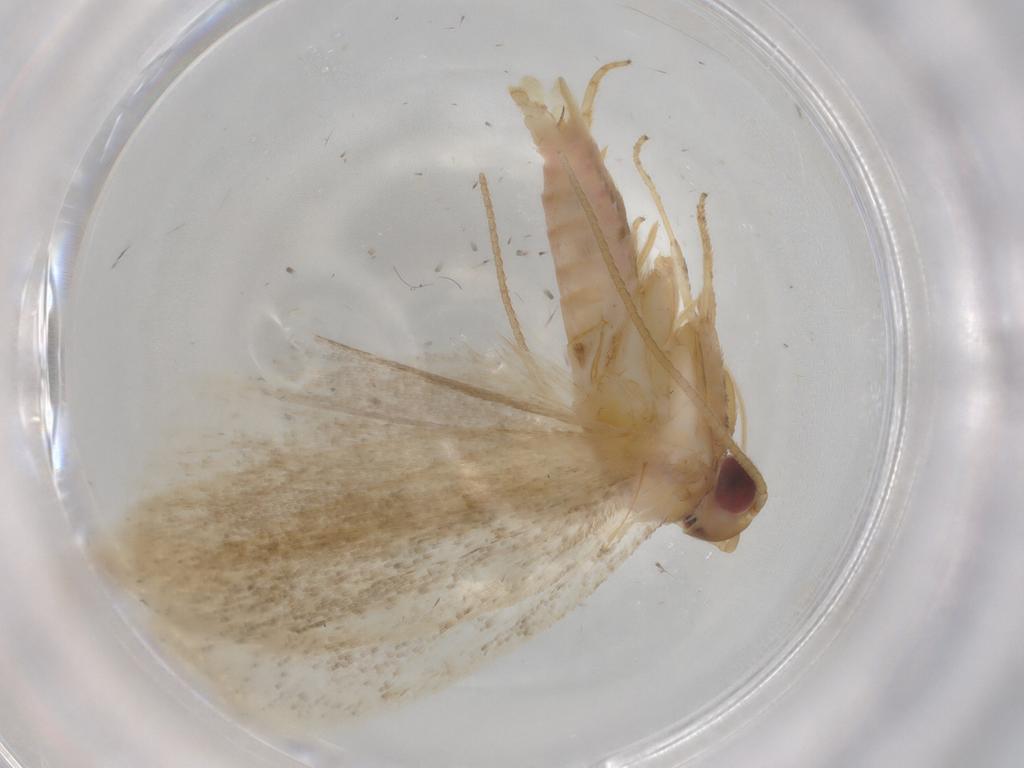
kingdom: Animalia
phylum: Arthropoda
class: Insecta
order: Lepidoptera
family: Cosmopterigidae
